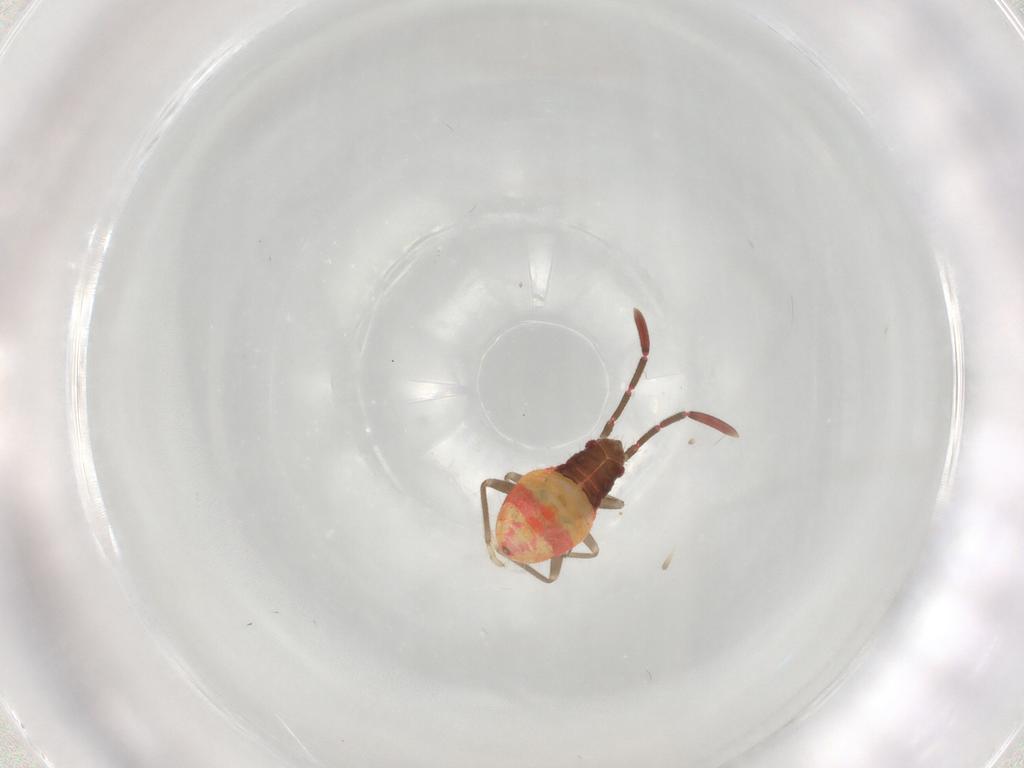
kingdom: Animalia
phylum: Arthropoda
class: Insecta
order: Hemiptera
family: Rhyparochromidae
